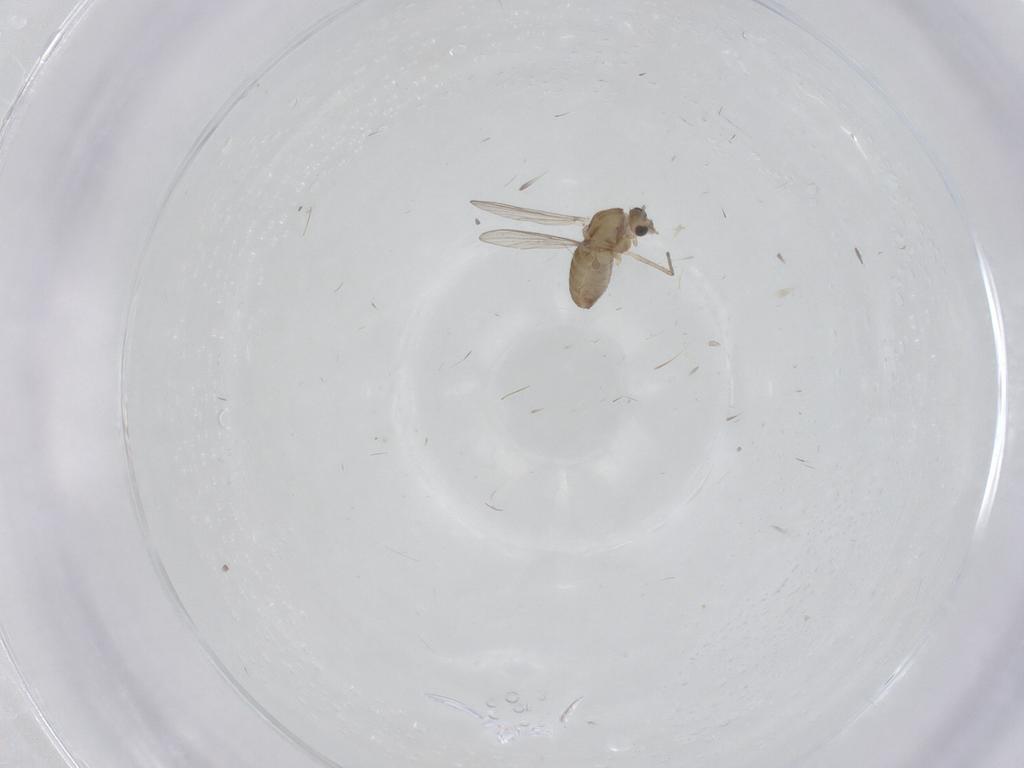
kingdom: Animalia
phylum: Arthropoda
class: Insecta
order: Diptera
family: Chironomidae
